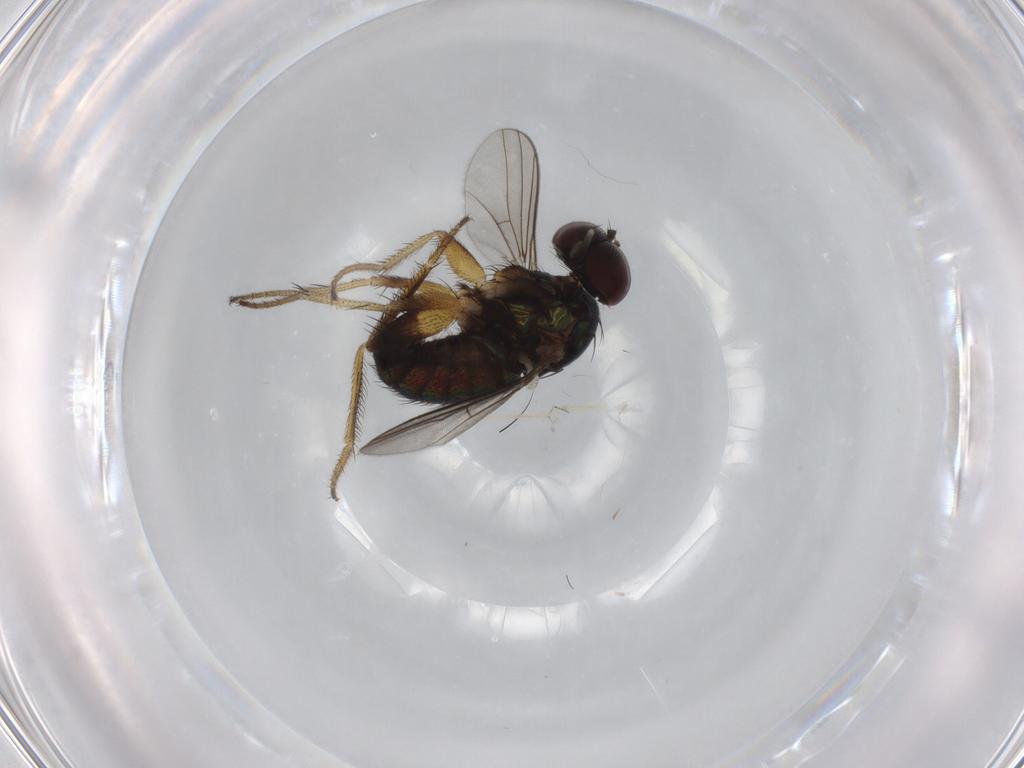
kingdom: Animalia
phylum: Arthropoda
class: Insecta
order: Diptera
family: Dolichopodidae
